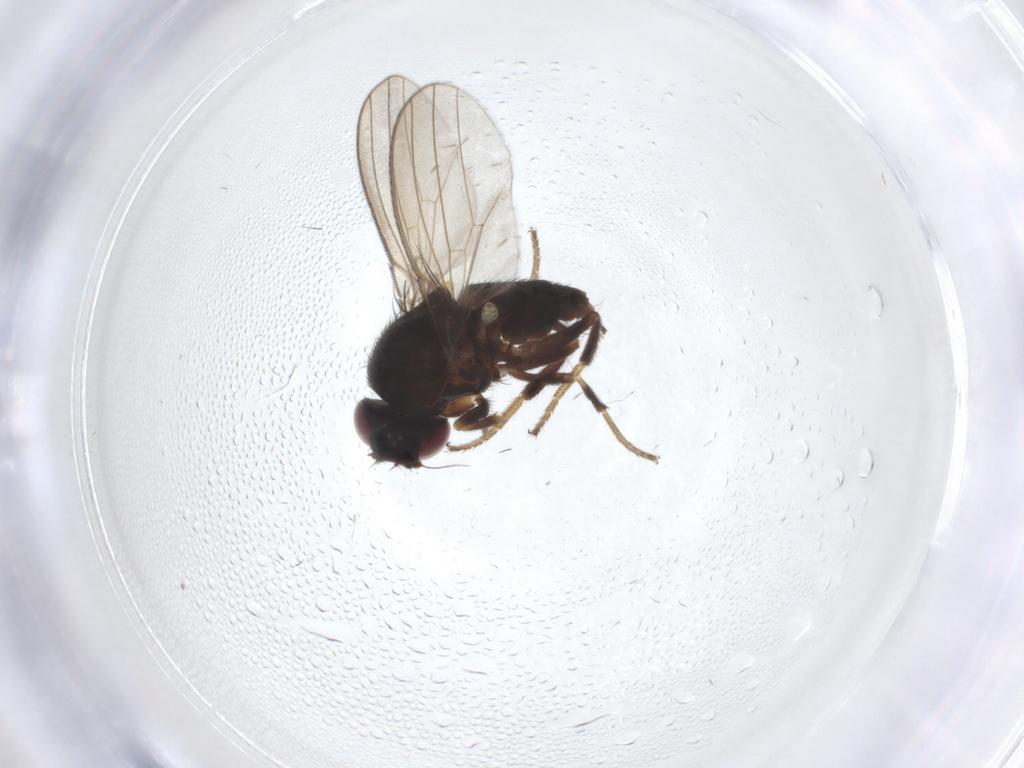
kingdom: Animalia
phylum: Arthropoda
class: Insecta
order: Diptera
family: Milichiidae
